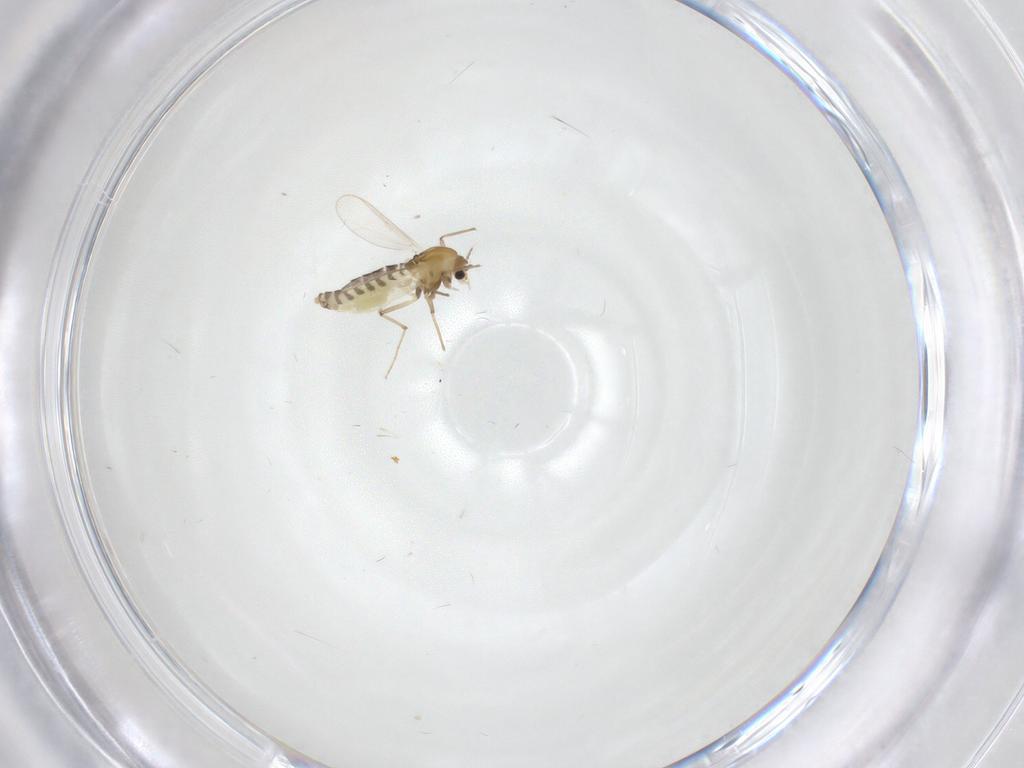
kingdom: Animalia
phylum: Arthropoda
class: Insecta
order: Diptera
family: Chironomidae
